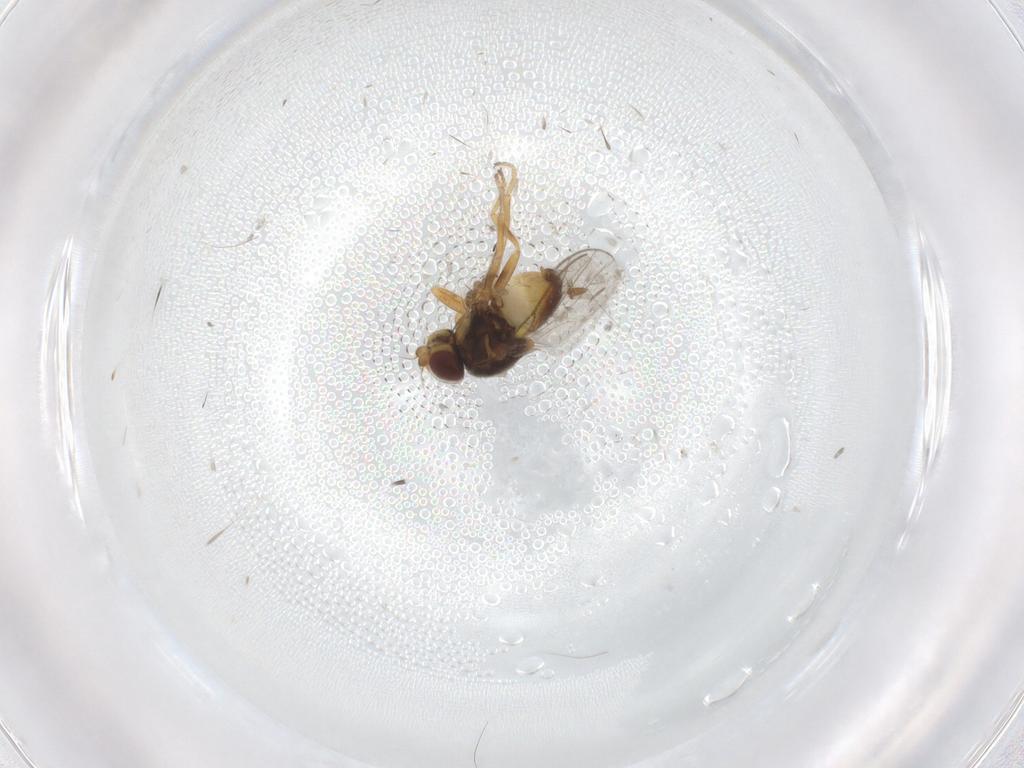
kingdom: Animalia
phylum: Arthropoda
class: Insecta
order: Diptera
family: Chloropidae
